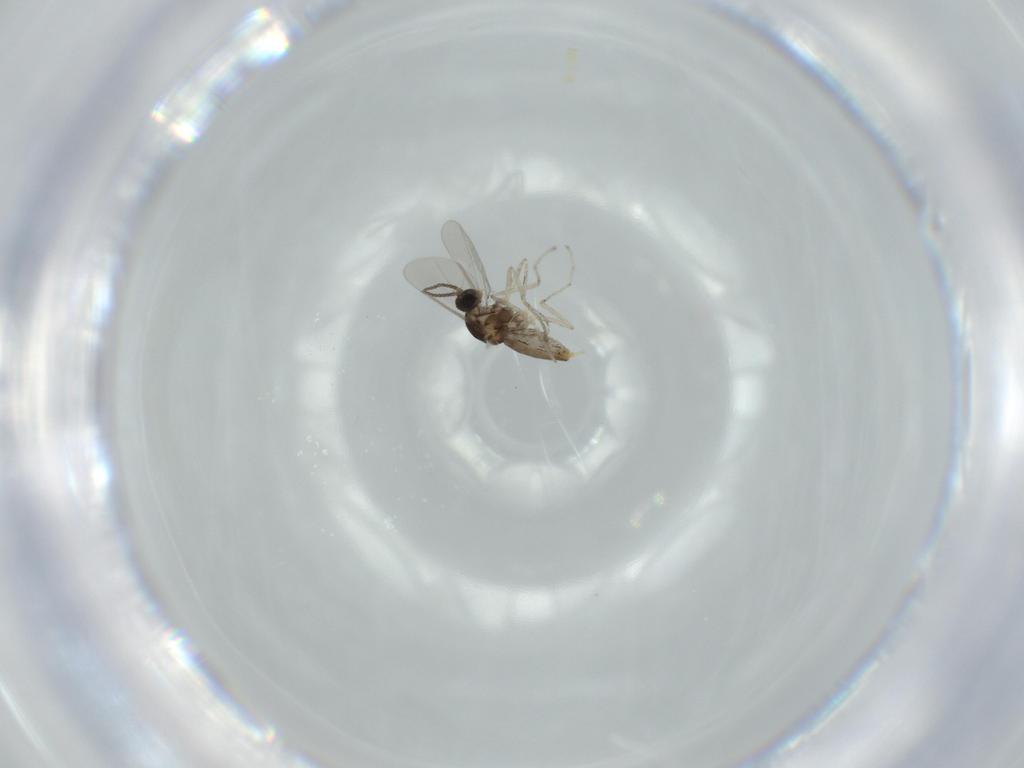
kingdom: Animalia
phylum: Arthropoda
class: Insecta
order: Diptera
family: Cecidomyiidae
